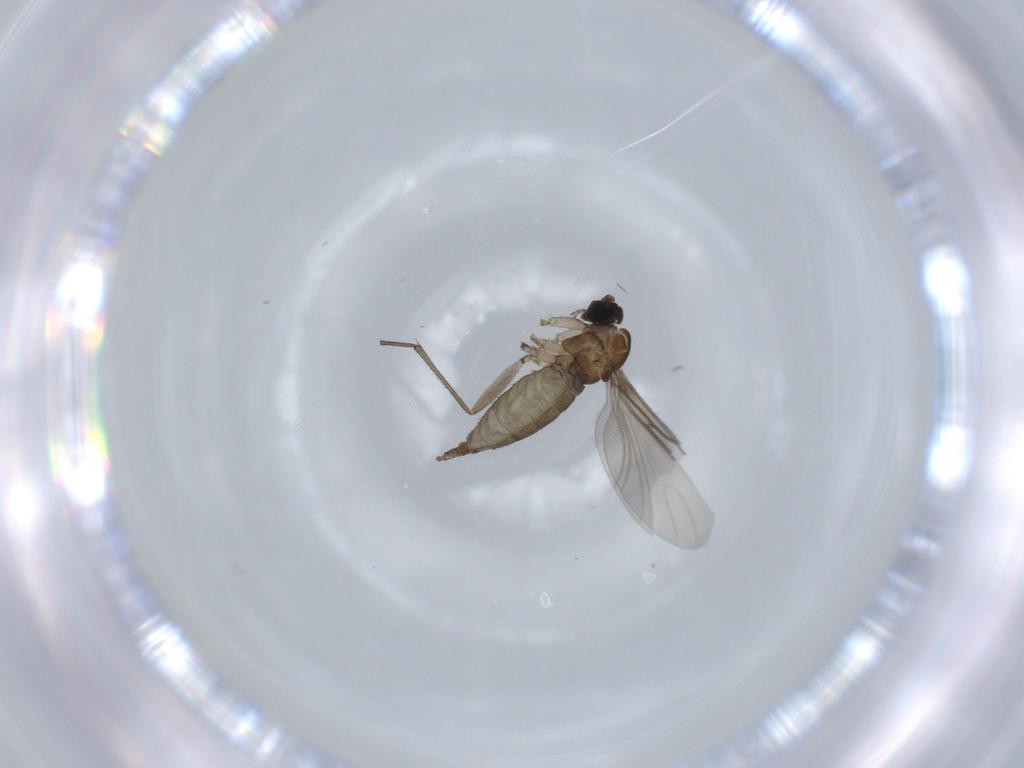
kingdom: Animalia
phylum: Arthropoda
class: Insecta
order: Diptera
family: Sciaridae
